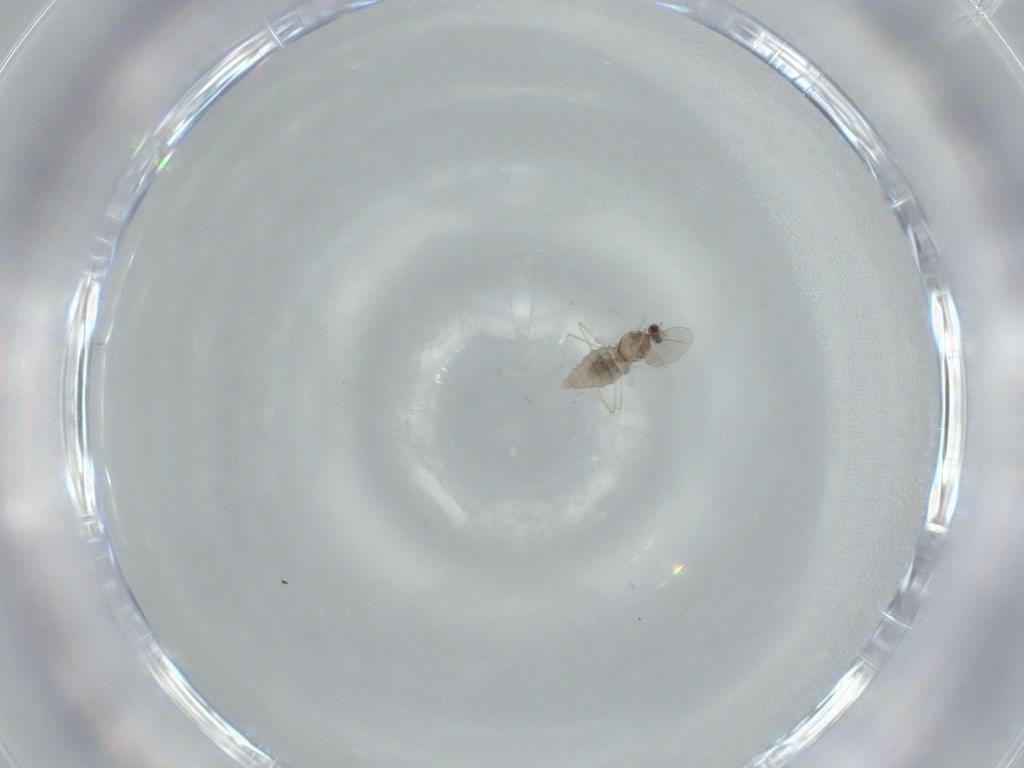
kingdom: Animalia
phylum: Arthropoda
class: Insecta
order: Diptera
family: Cecidomyiidae
